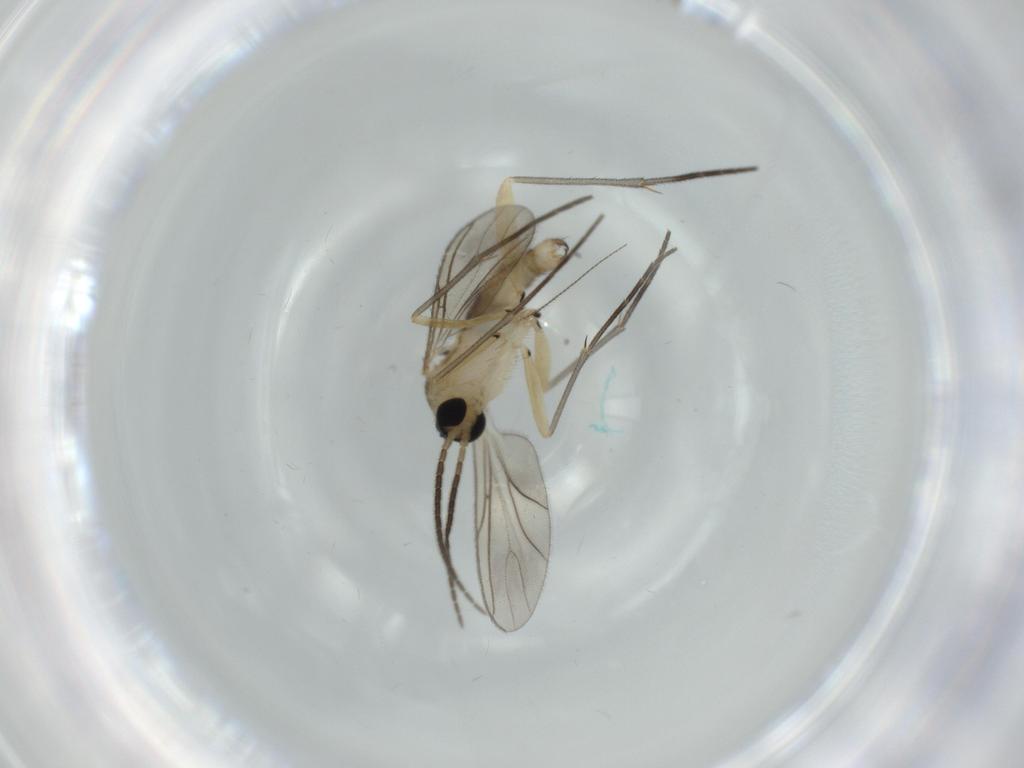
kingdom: Animalia
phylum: Arthropoda
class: Insecta
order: Diptera
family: Sciaridae
